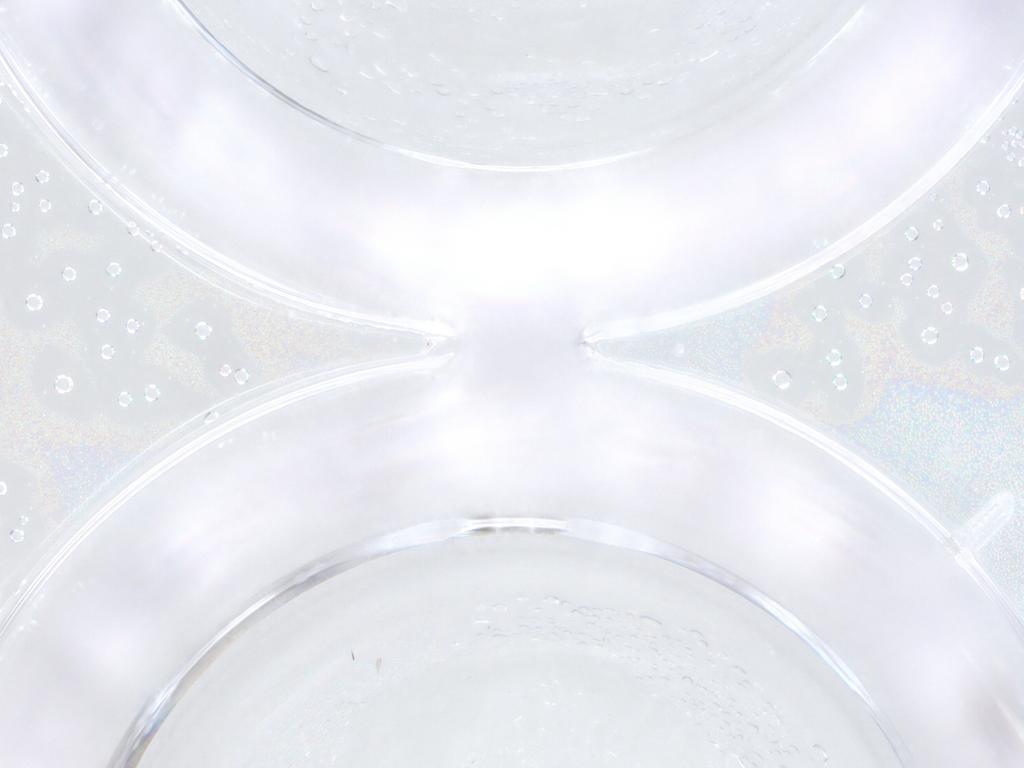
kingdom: Animalia
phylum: Arthropoda
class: Insecta
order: Diptera
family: Sphaeroceridae
